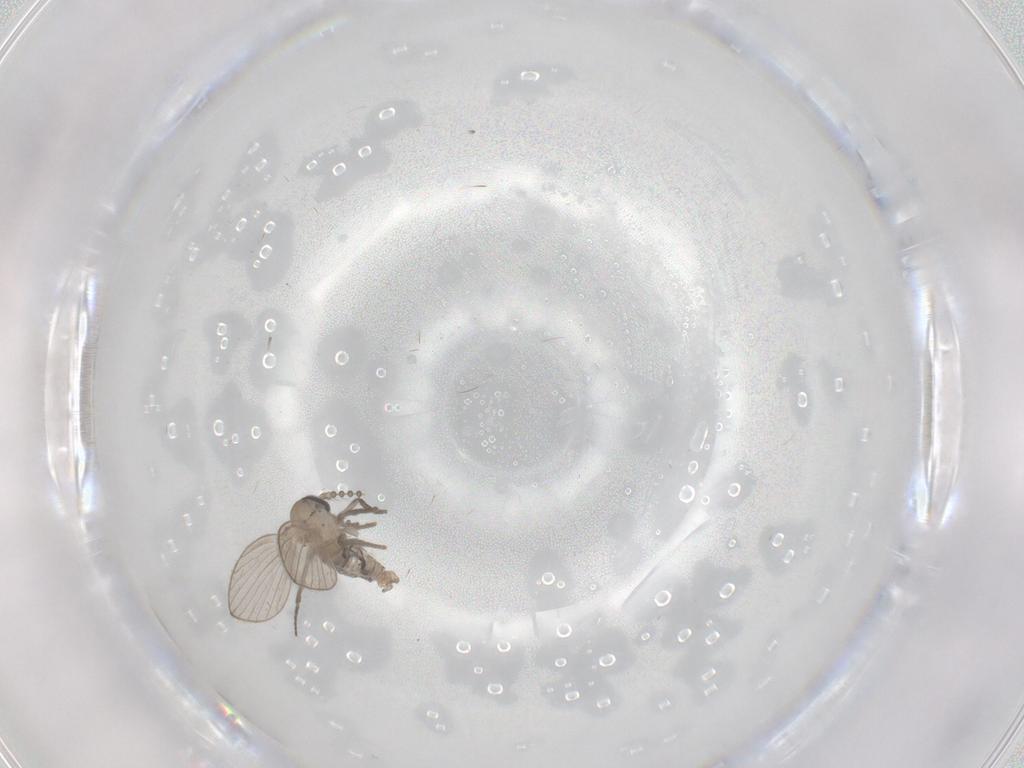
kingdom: Animalia
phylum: Arthropoda
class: Insecta
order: Diptera
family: Psychodidae
